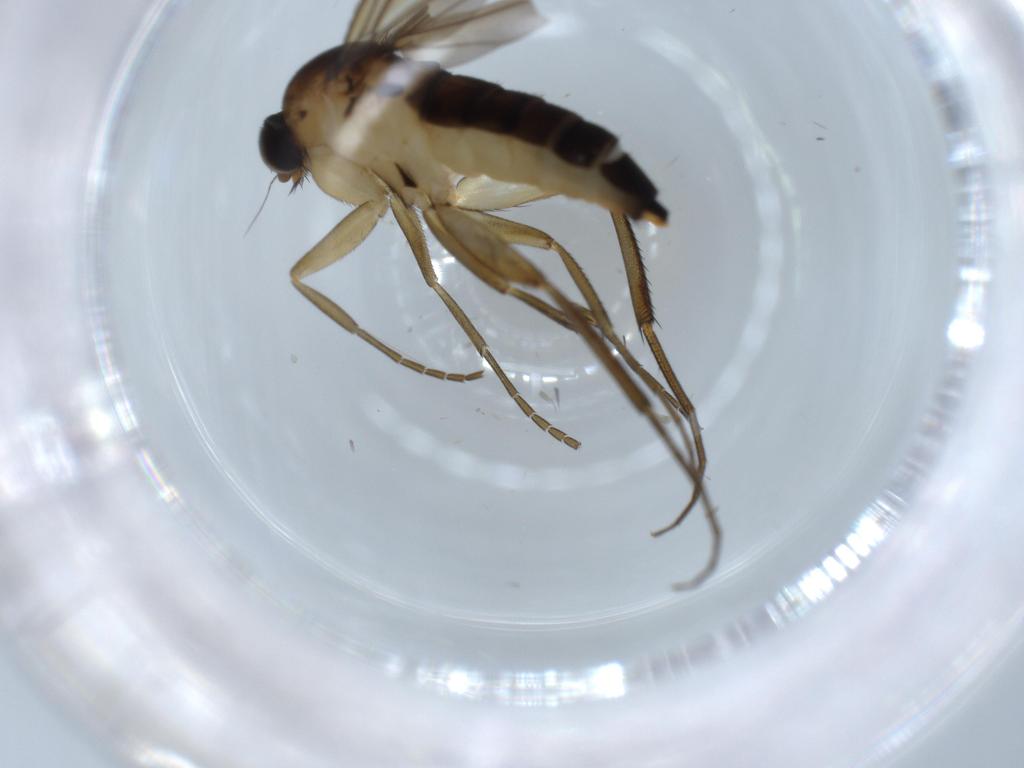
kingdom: Animalia
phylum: Arthropoda
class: Insecta
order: Diptera
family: Phoridae
